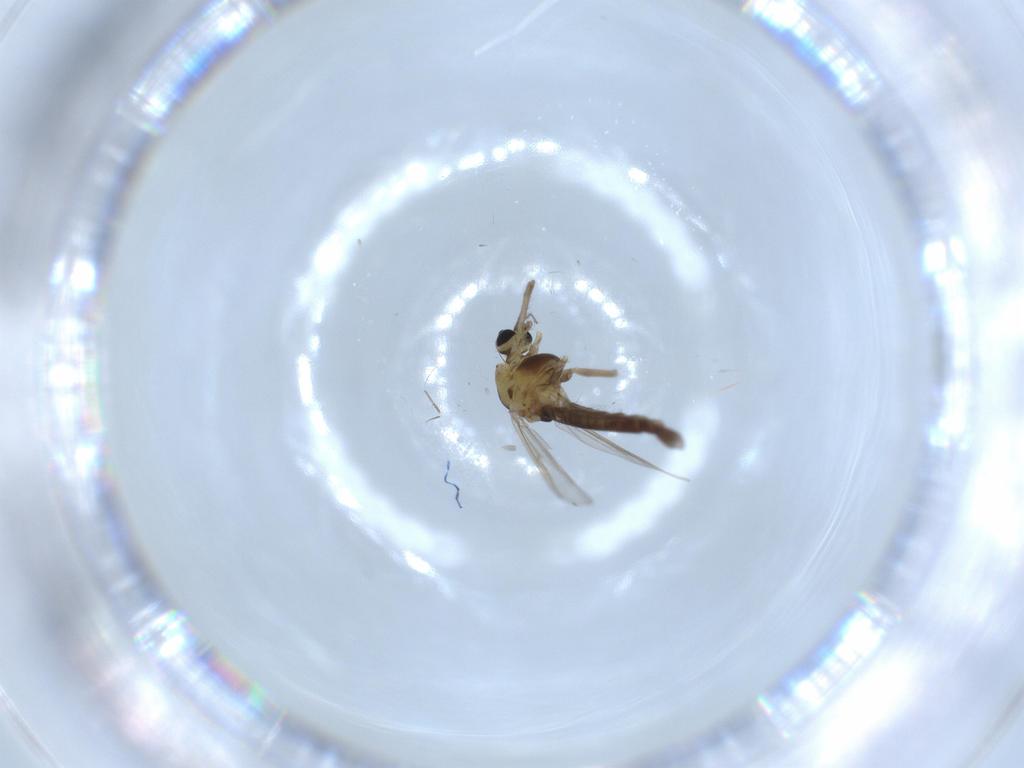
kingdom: Animalia
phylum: Arthropoda
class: Insecta
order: Diptera
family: Chironomidae
